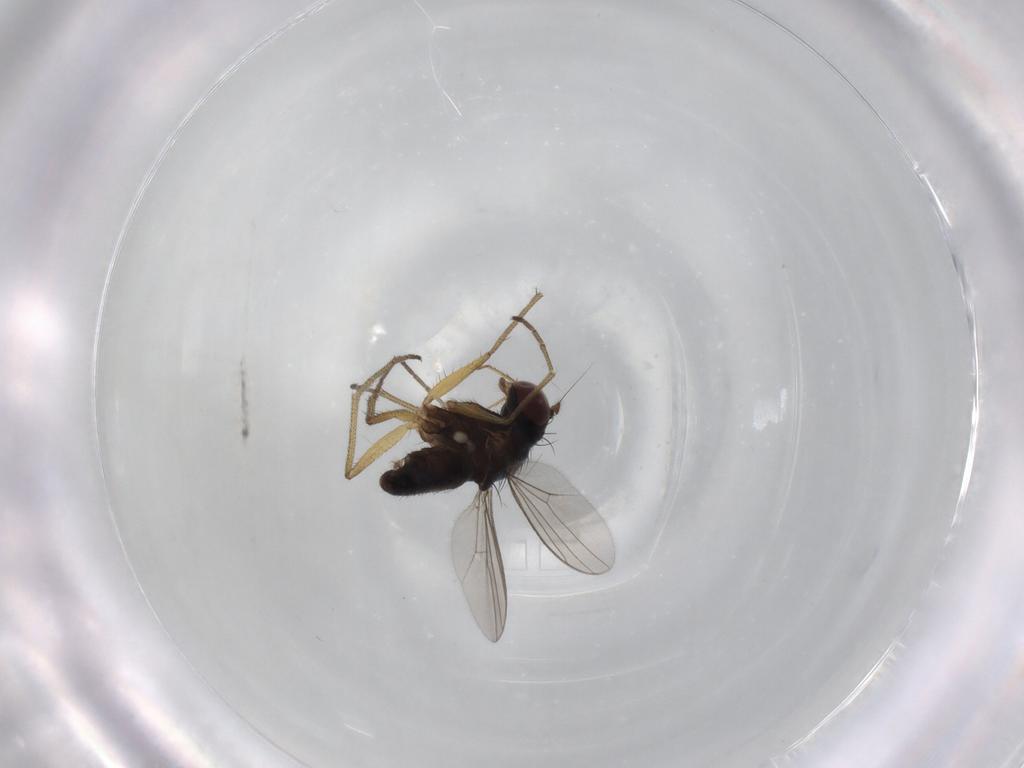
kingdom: Animalia
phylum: Arthropoda
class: Insecta
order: Diptera
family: Dolichopodidae
